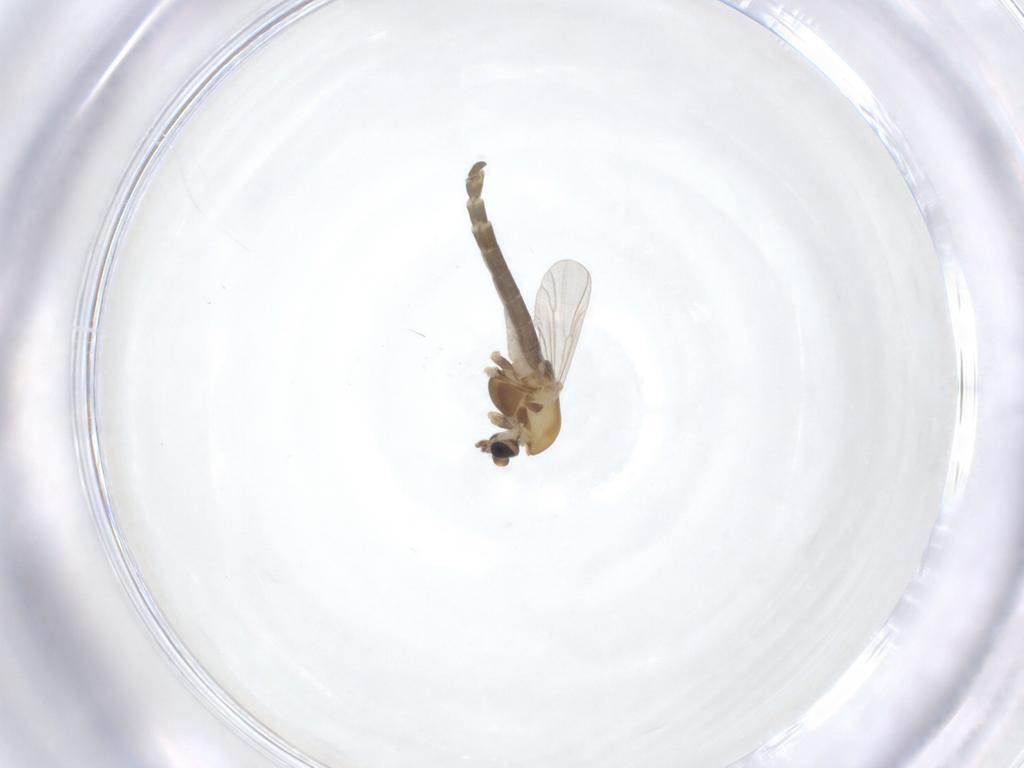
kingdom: Animalia
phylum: Arthropoda
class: Insecta
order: Diptera
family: Chironomidae
